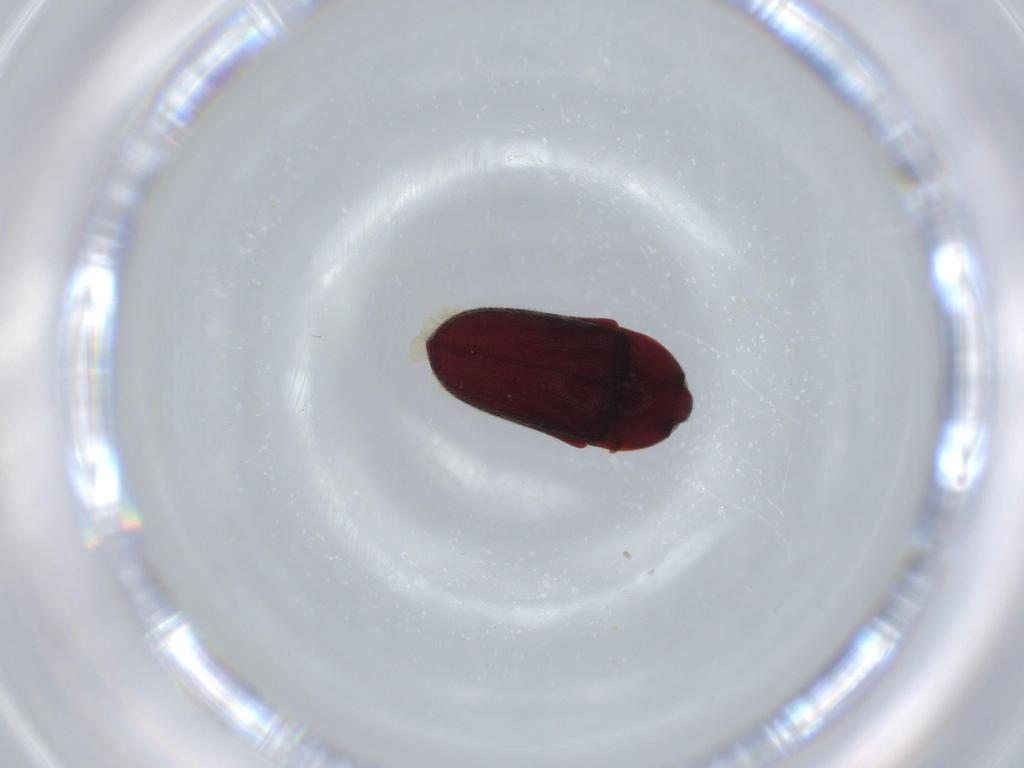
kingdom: Animalia
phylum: Arthropoda
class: Insecta
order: Coleoptera
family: Throscidae
